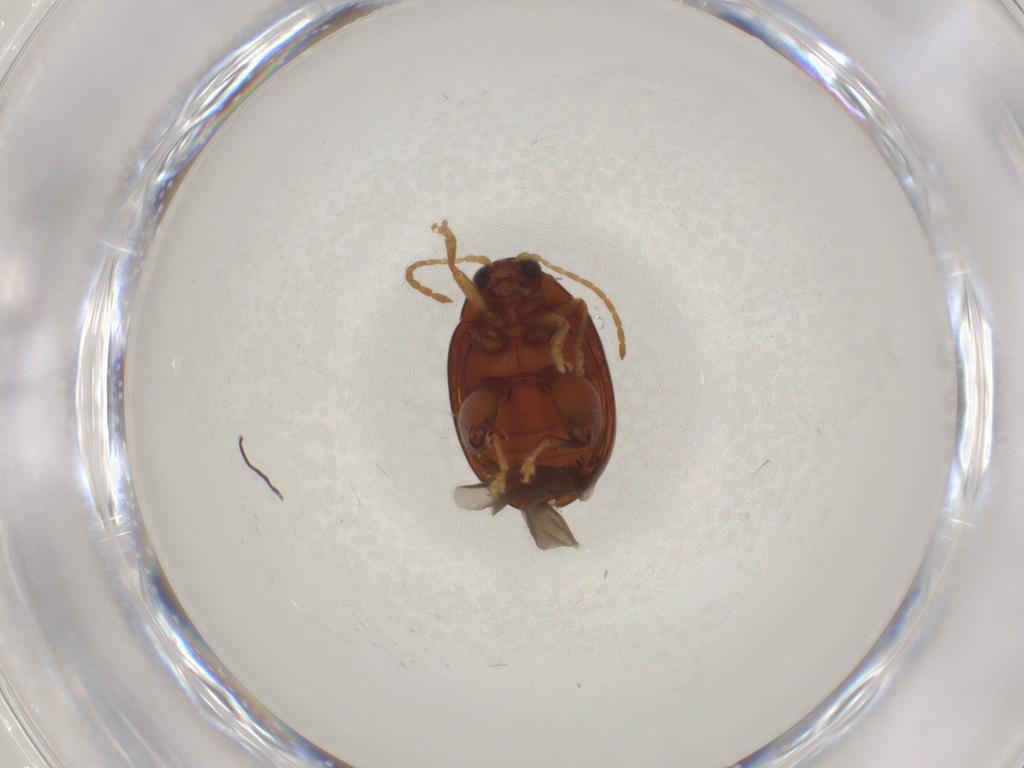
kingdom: Animalia
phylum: Arthropoda
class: Insecta
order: Coleoptera
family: Chrysomelidae
